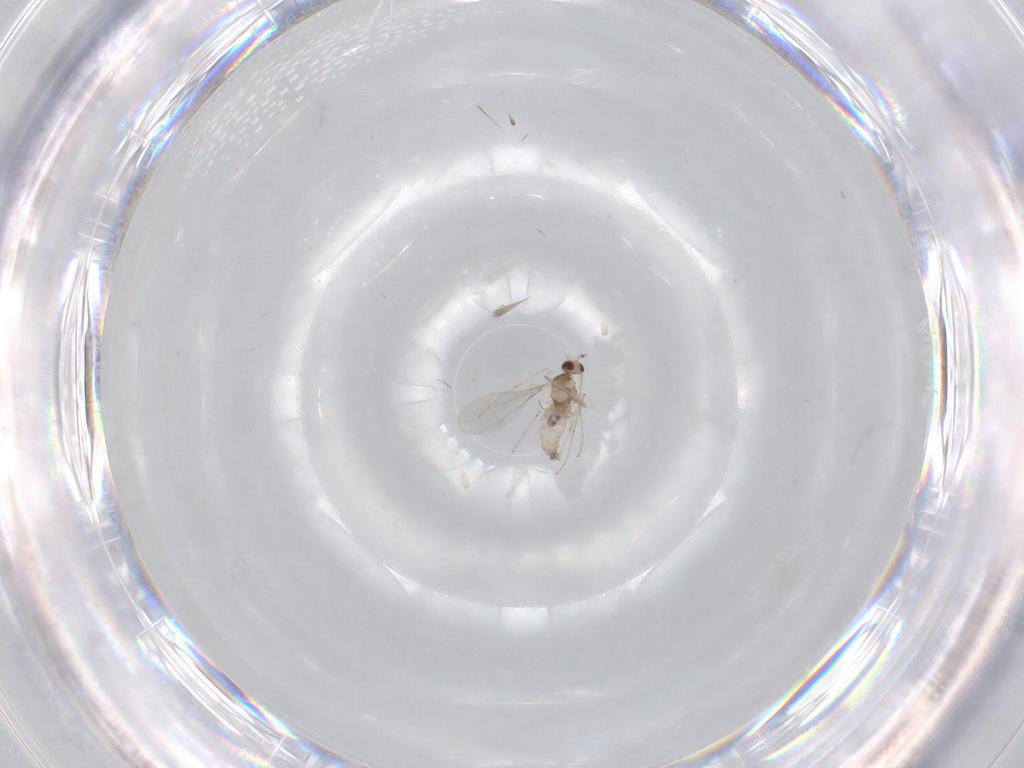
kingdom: Animalia
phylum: Arthropoda
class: Insecta
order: Diptera
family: Cecidomyiidae
